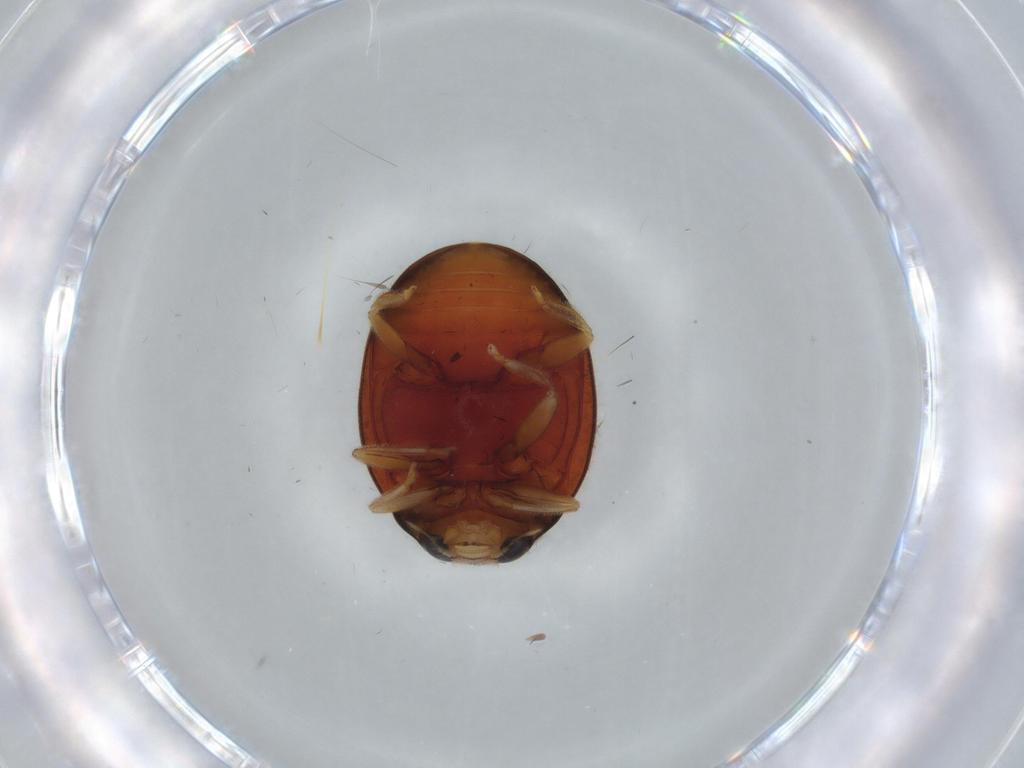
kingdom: Animalia
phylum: Arthropoda
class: Insecta
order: Coleoptera
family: Coccinellidae
